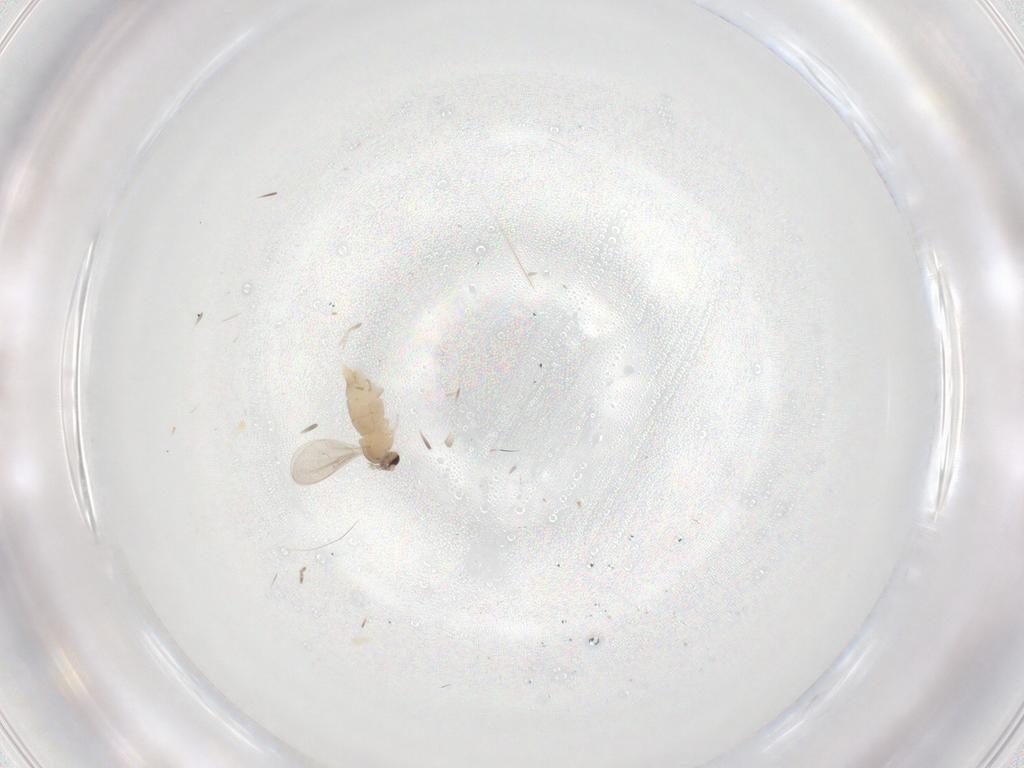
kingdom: Animalia
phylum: Arthropoda
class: Insecta
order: Diptera
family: Cecidomyiidae
